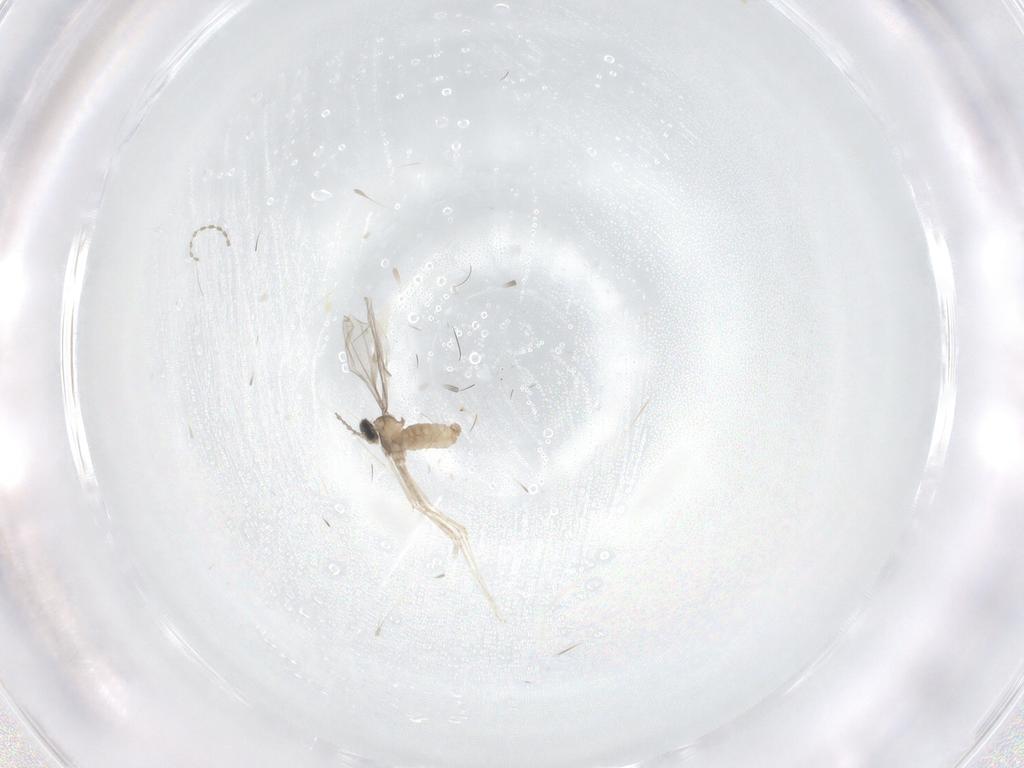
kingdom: Animalia
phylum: Arthropoda
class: Insecta
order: Diptera
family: Cecidomyiidae
